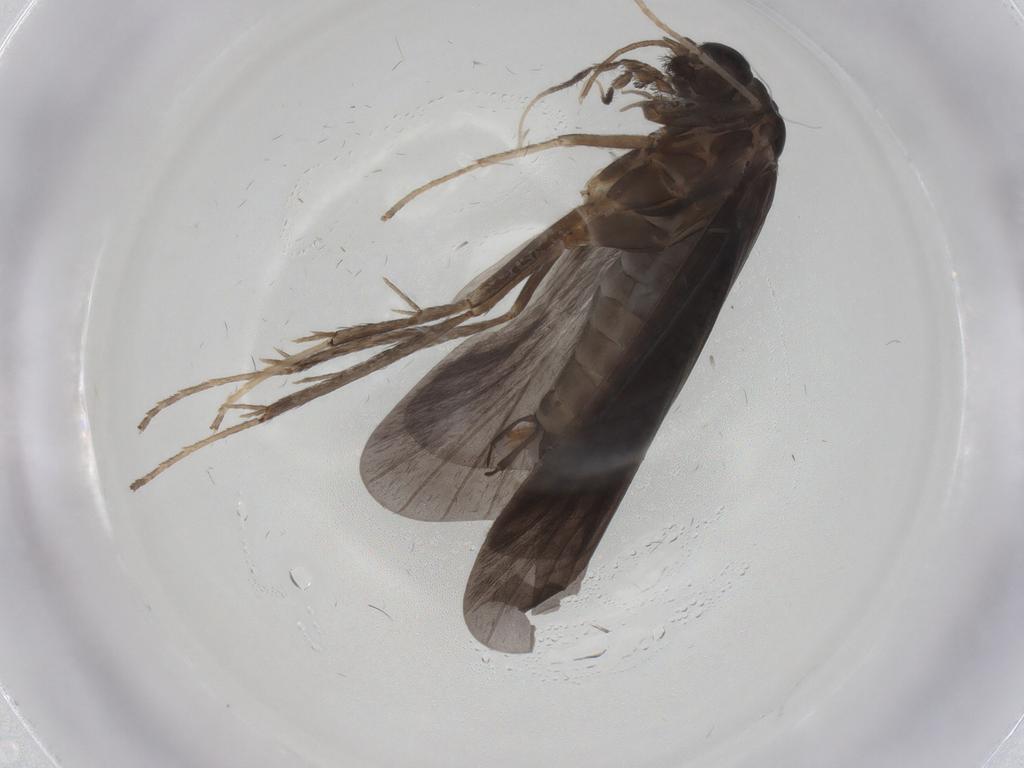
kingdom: Animalia
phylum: Arthropoda
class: Insecta
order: Trichoptera
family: Hydropsychidae
